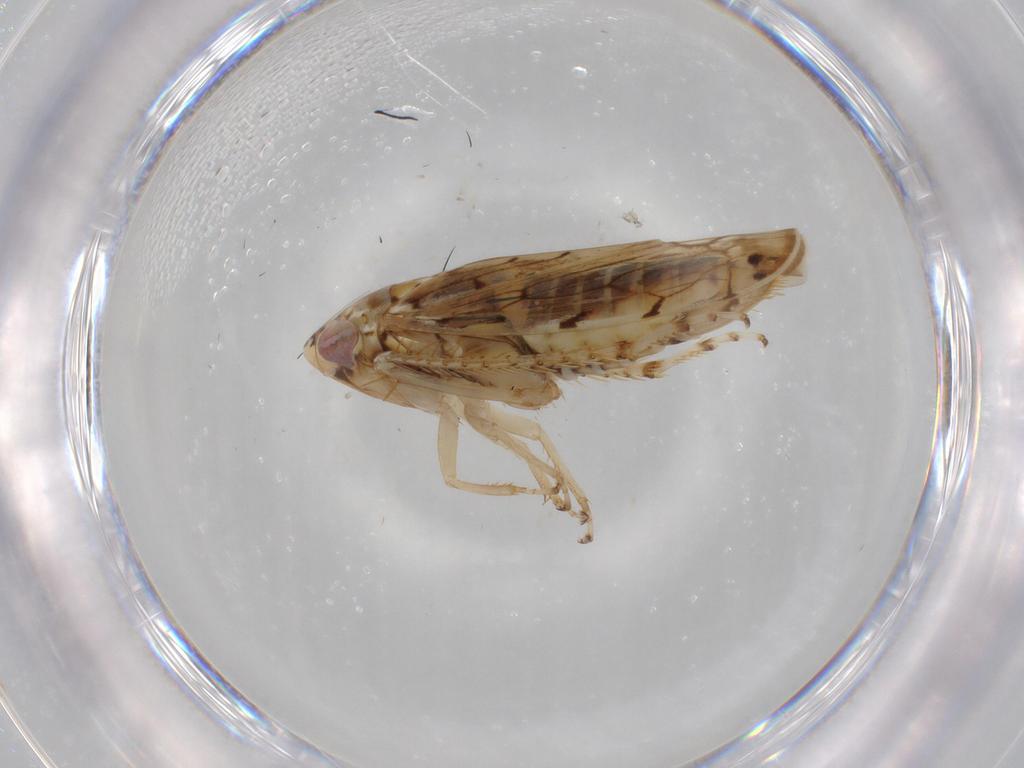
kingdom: Animalia
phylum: Arthropoda
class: Insecta
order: Hemiptera
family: Cicadellidae
